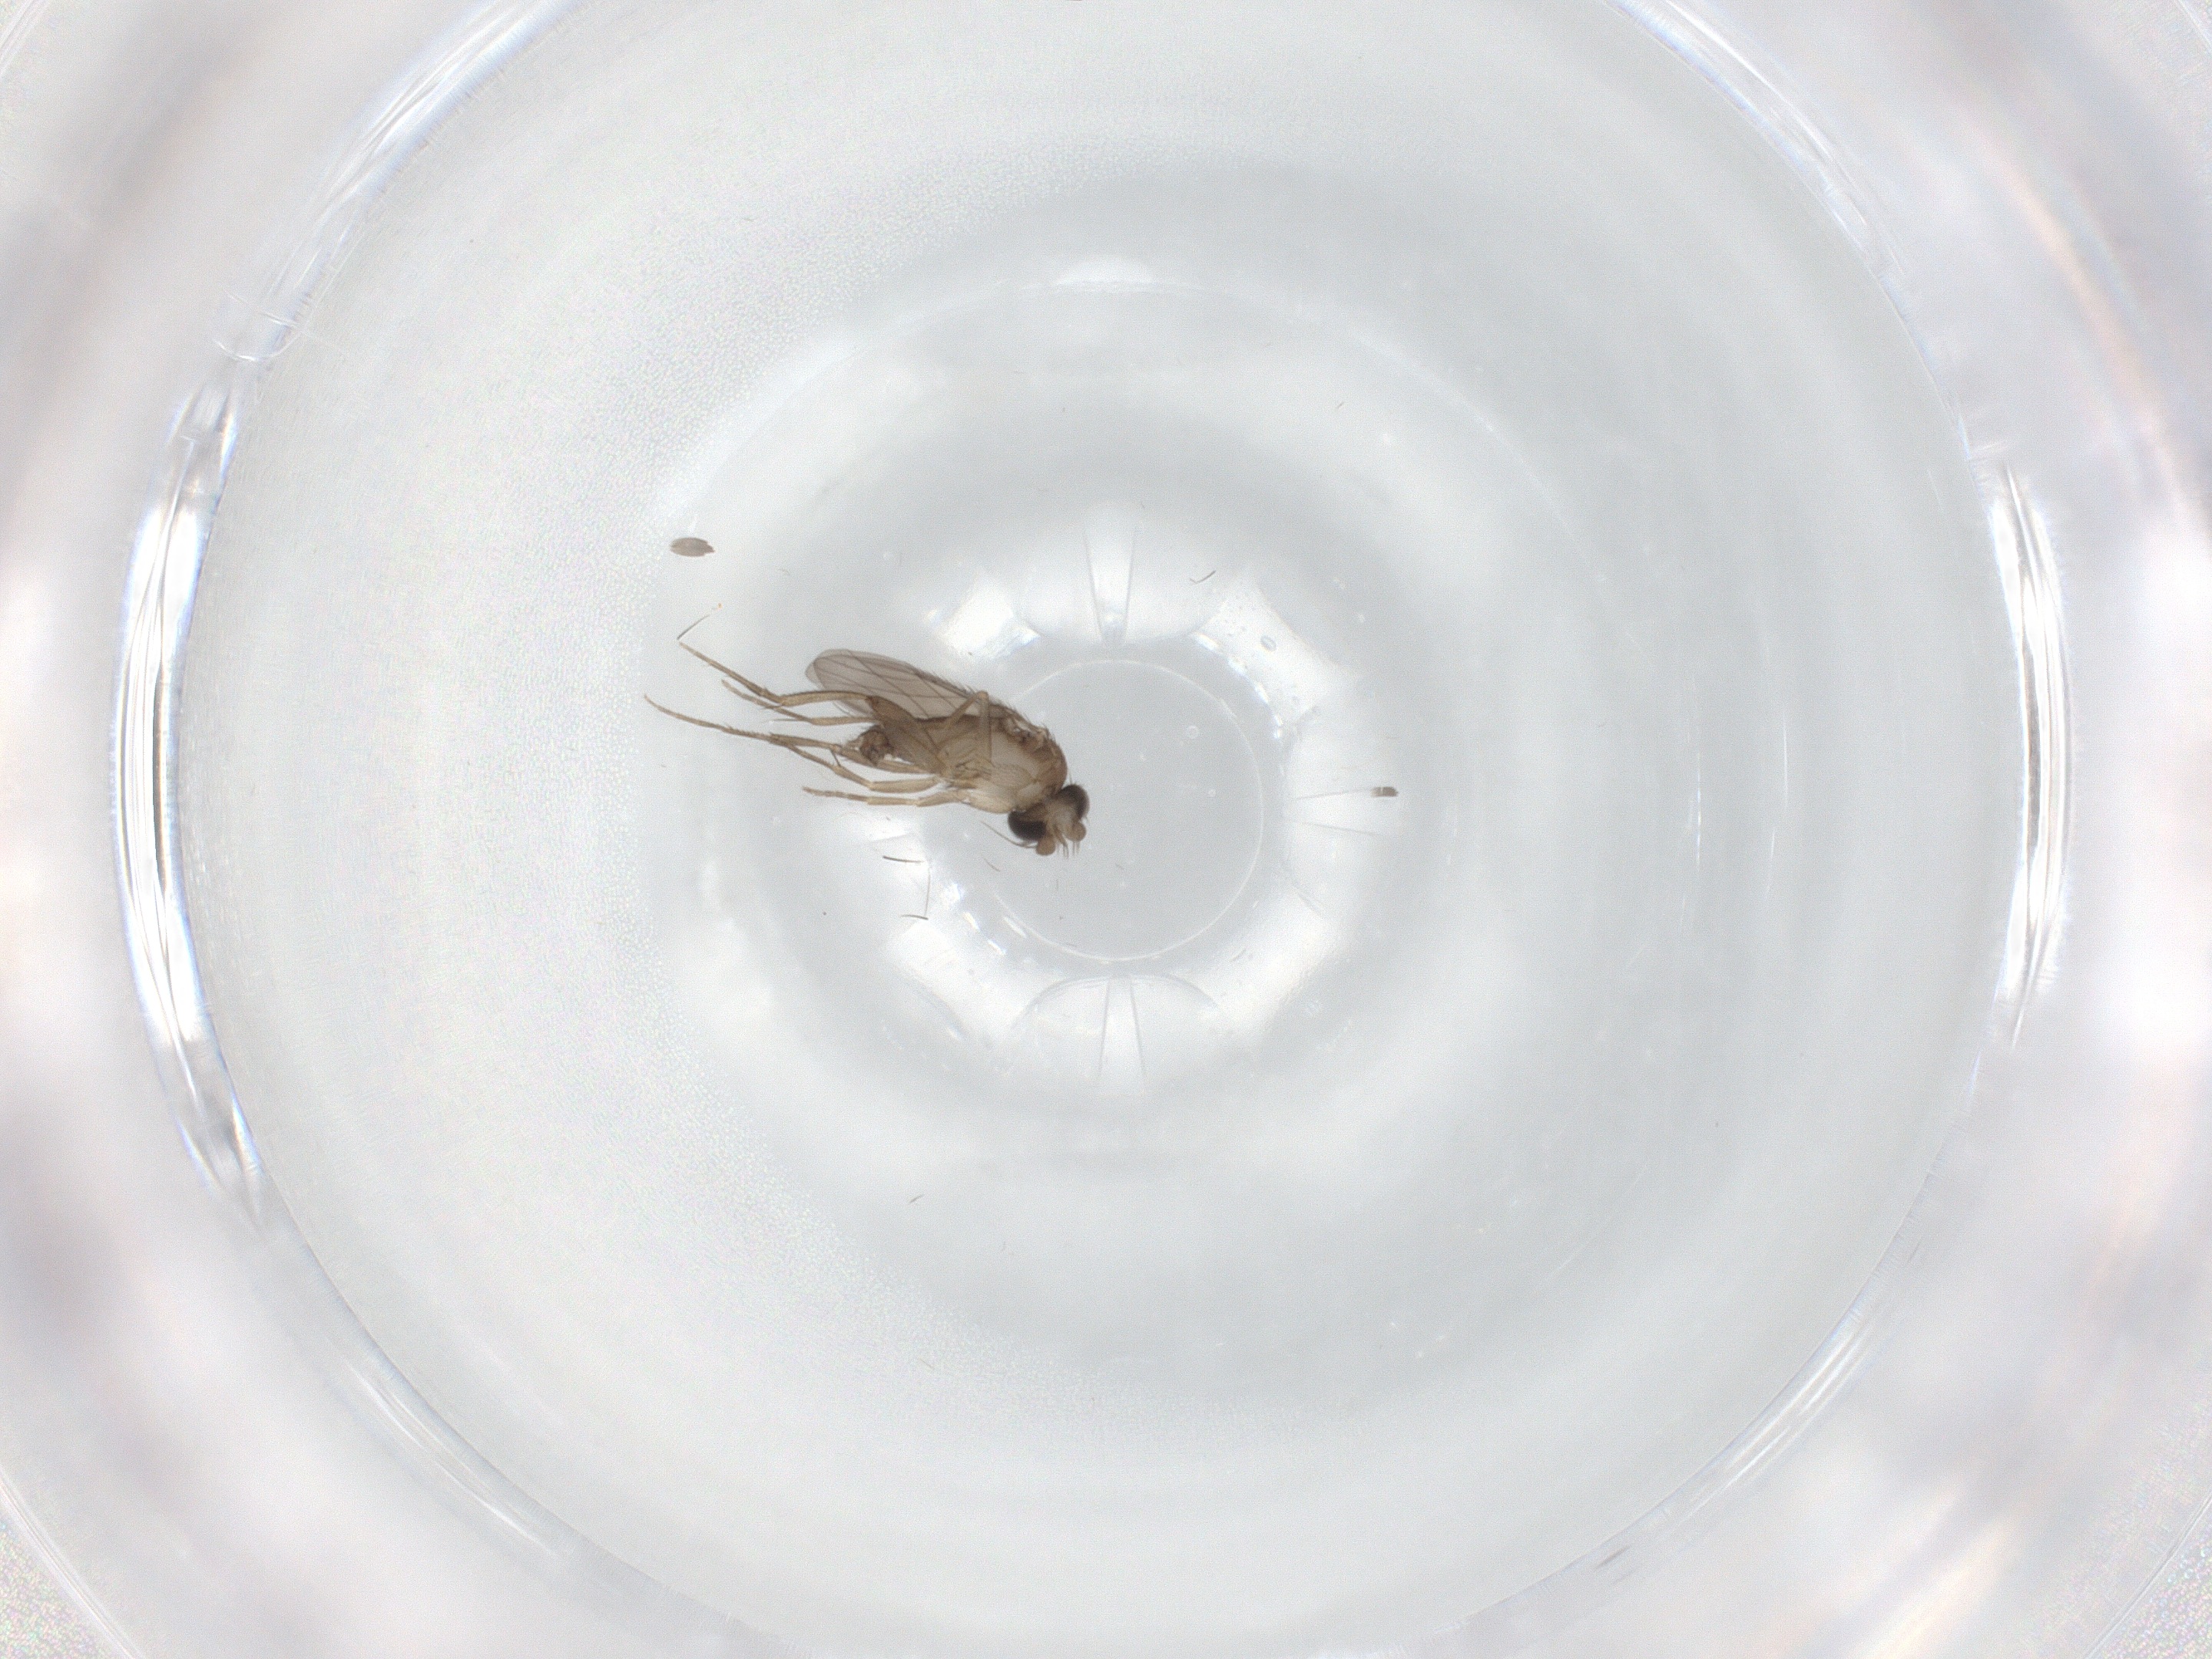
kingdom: Animalia
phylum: Arthropoda
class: Insecta
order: Diptera
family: Phoridae
